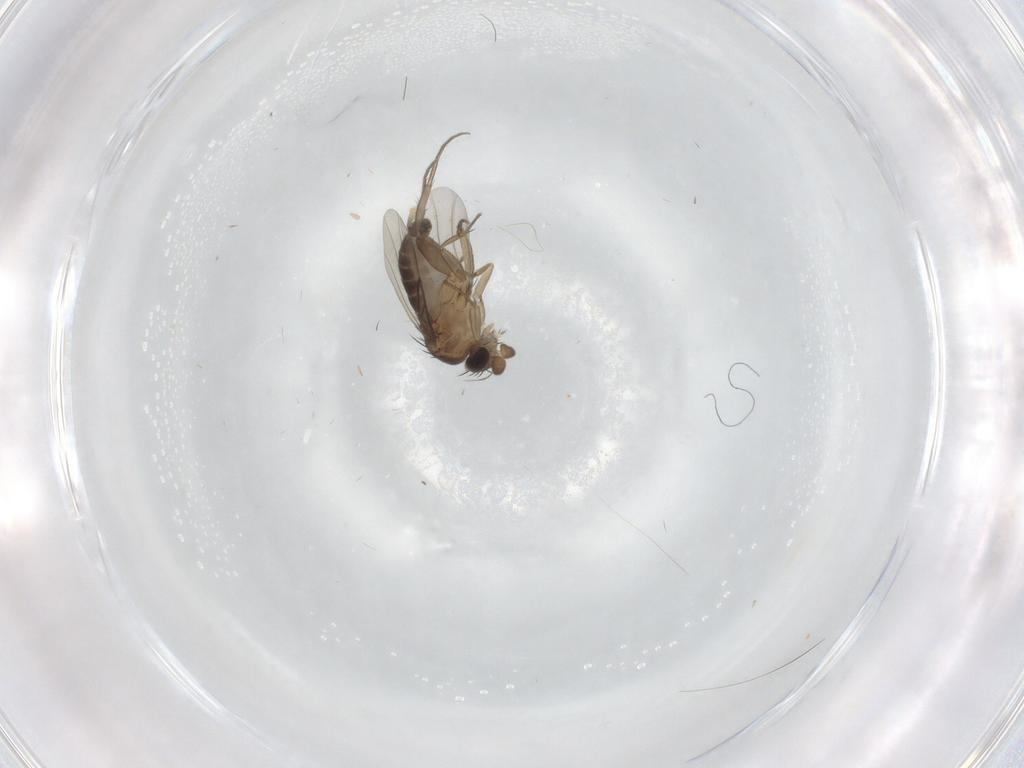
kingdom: Animalia
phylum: Arthropoda
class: Insecta
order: Diptera
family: Phoridae
